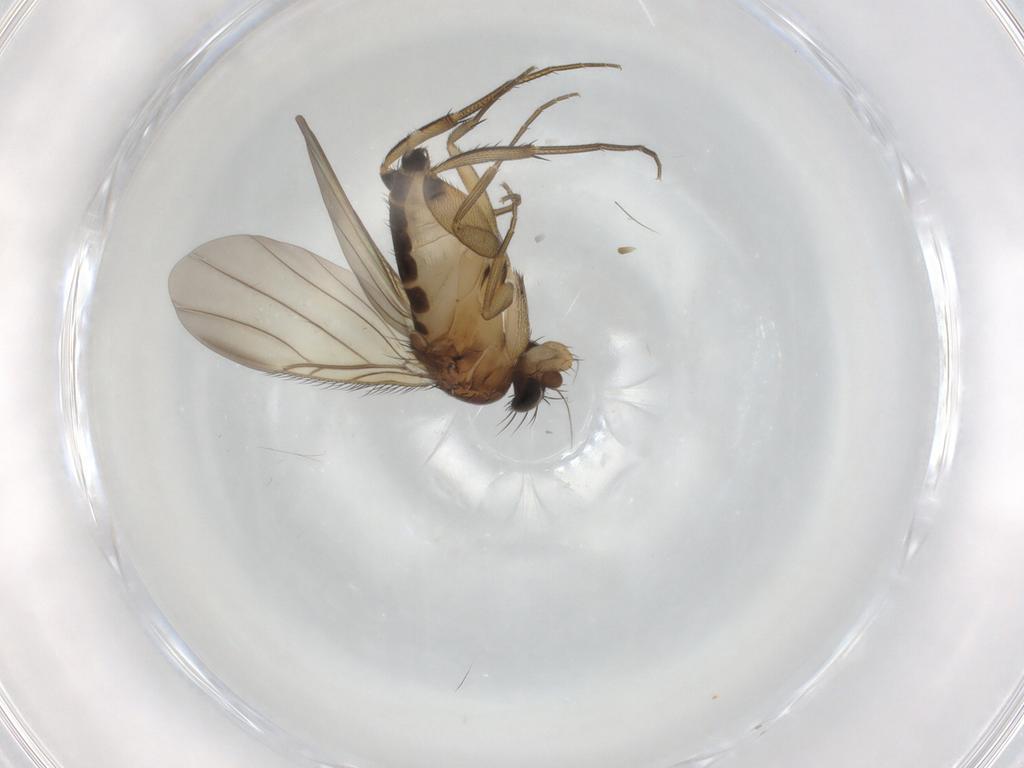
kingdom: Animalia
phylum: Arthropoda
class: Insecta
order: Diptera
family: Phoridae
